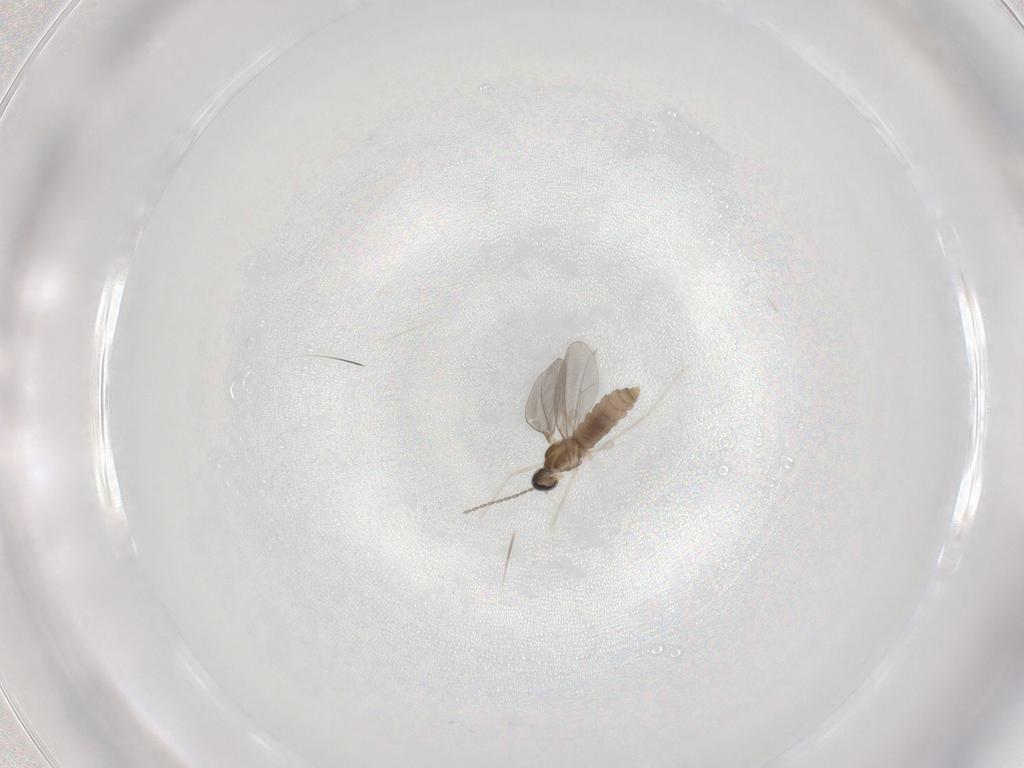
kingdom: Animalia
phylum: Arthropoda
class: Insecta
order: Diptera
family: Cecidomyiidae
